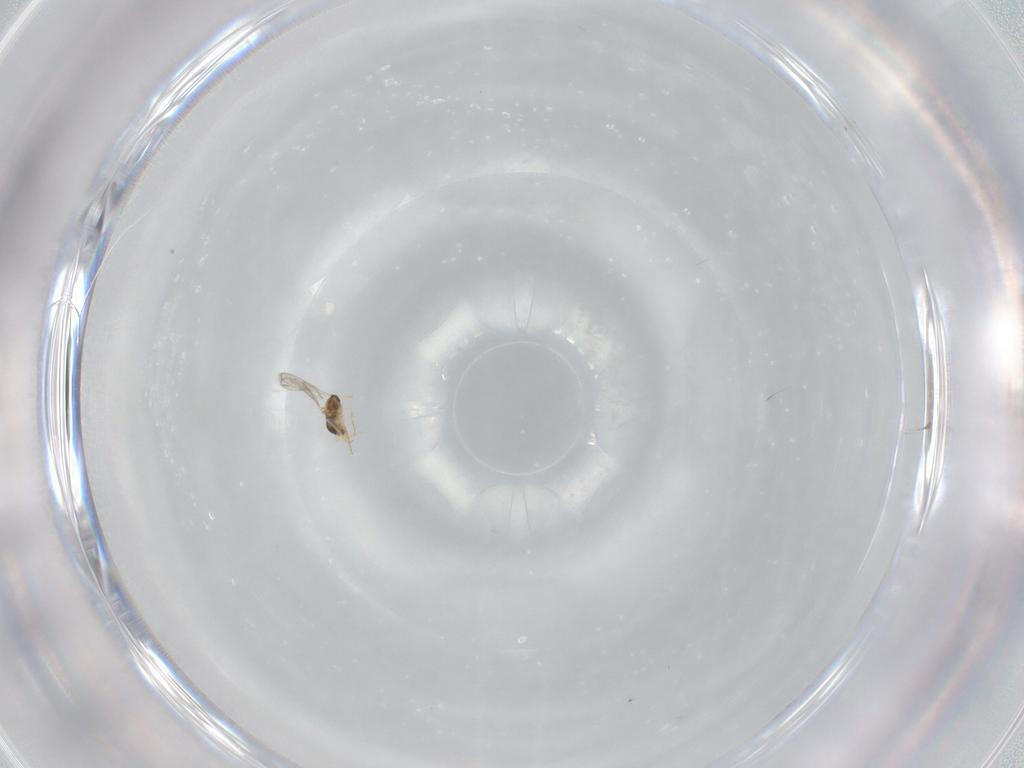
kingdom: Animalia
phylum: Arthropoda
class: Insecta
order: Hymenoptera
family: Aphelinidae
